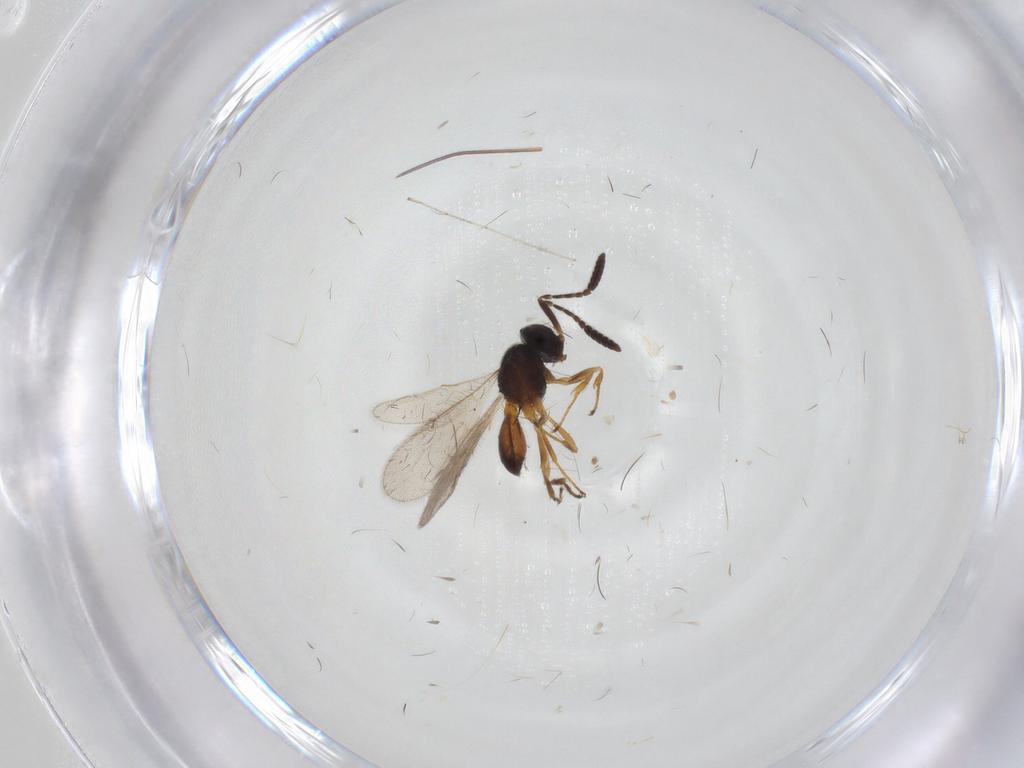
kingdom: Animalia
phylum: Arthropoda
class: Insecta
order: Hymenoptera
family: Scelionidae
